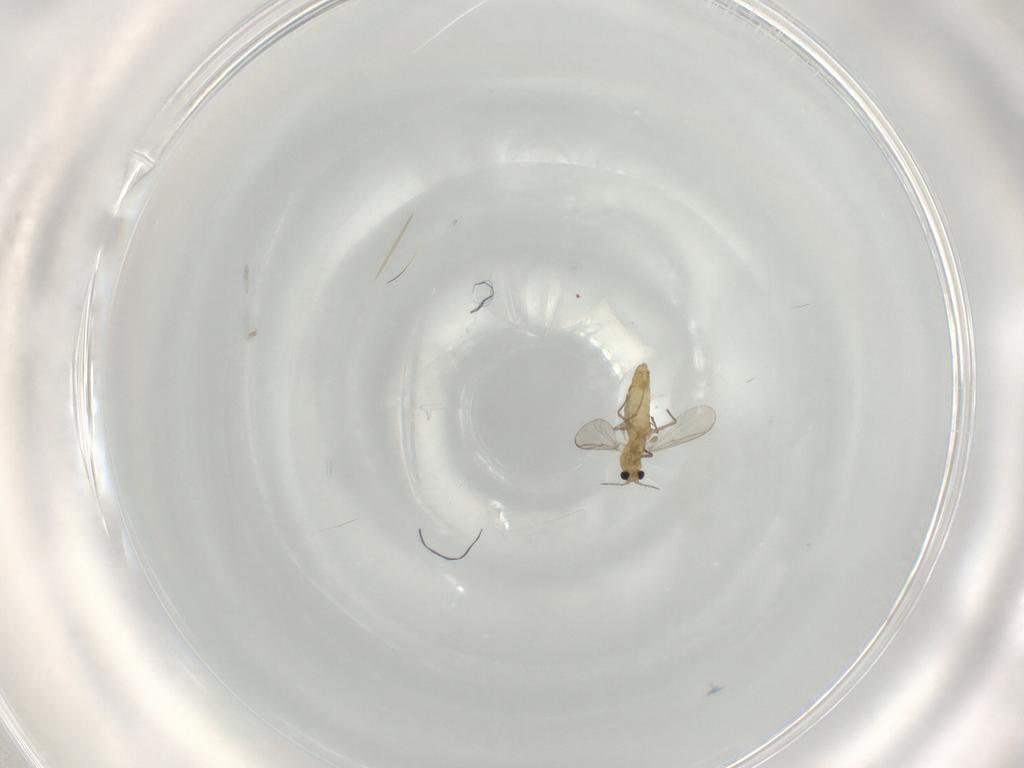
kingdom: Animalia
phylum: Arthropoda
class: Insecta
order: Diptera
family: Chironomidae
